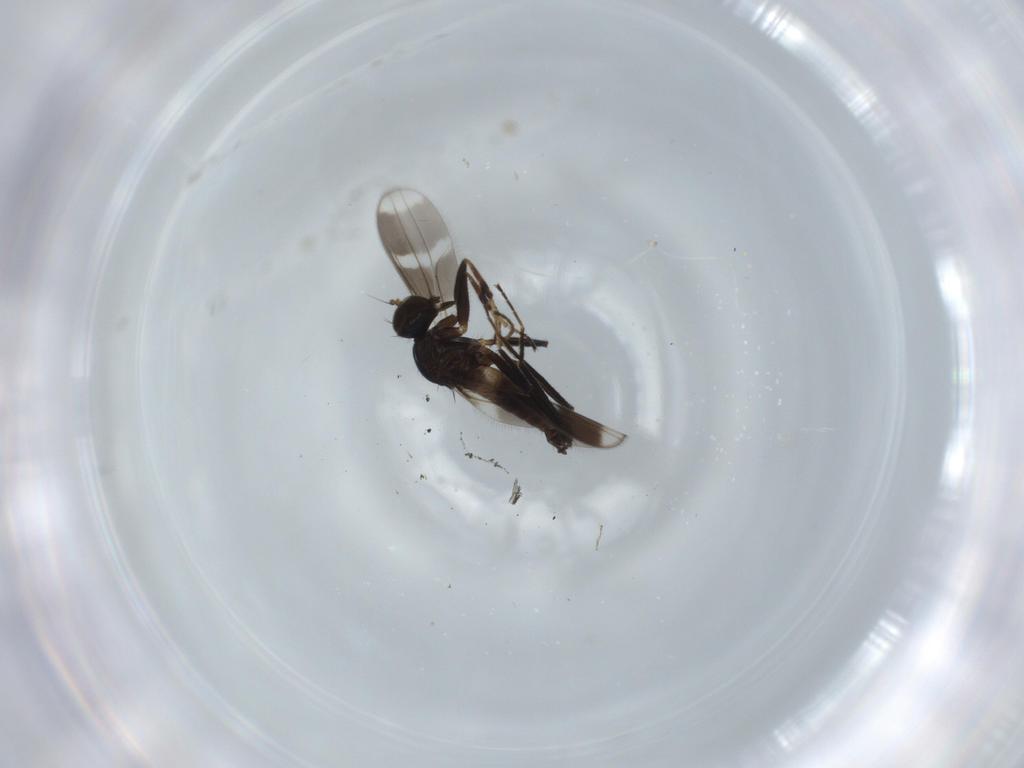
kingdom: Animalia
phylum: Arthropoda
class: Insecta
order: Diptera
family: Hybotidae
